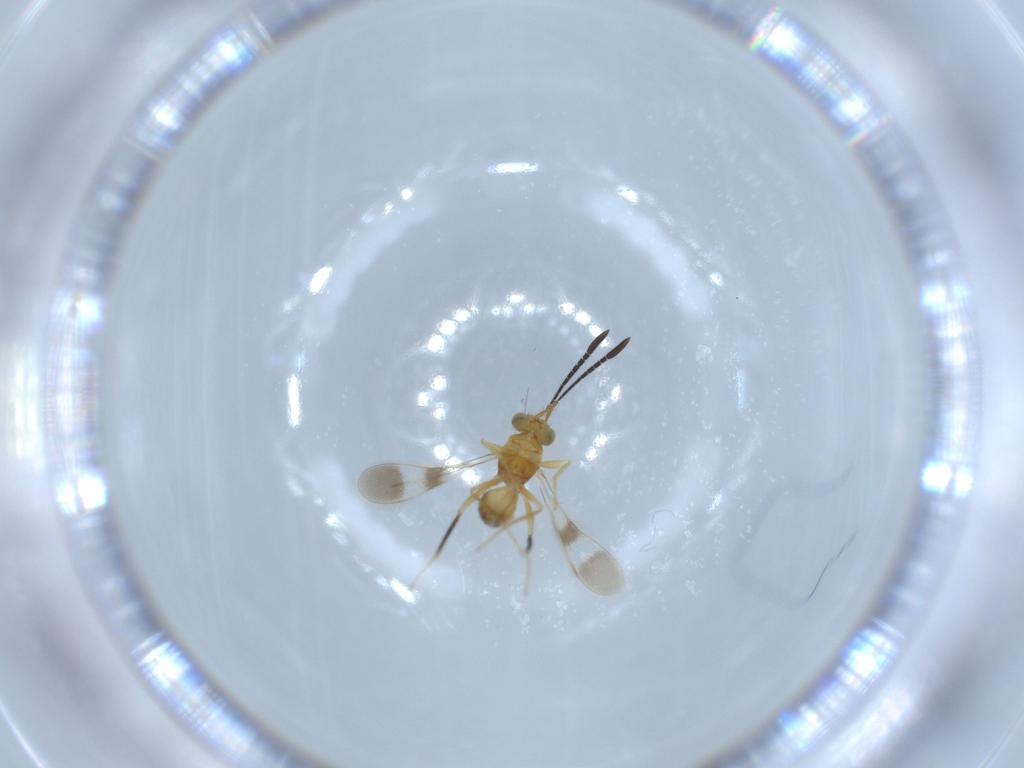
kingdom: Animalia
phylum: Arthropoda
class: Insecta
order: Hymenoptera
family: Mymaridae
